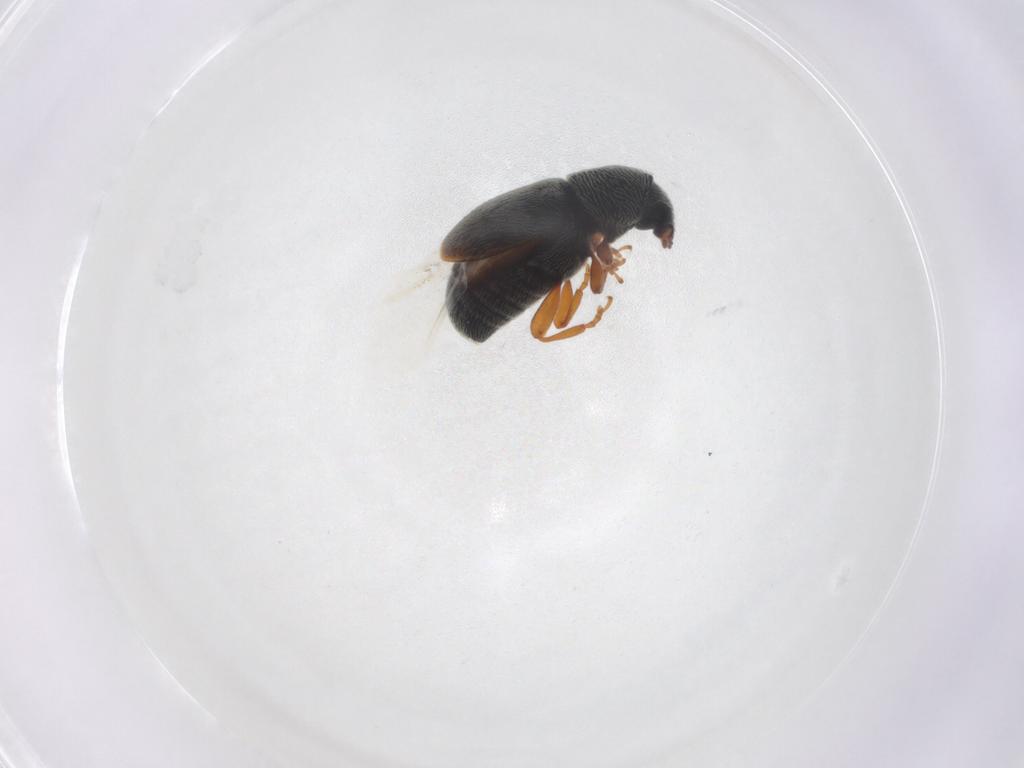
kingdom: Animalia
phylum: Arthropoda
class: Insecta
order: Coleoptera
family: Anthribidae
